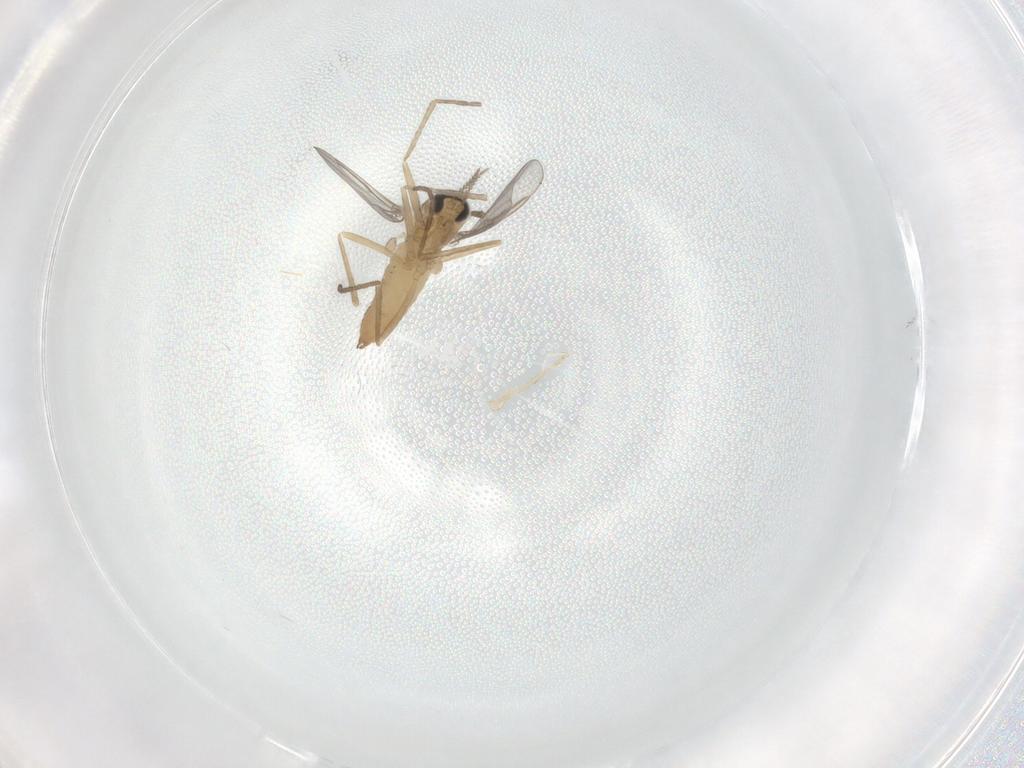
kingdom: Animalia
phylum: Arthropoda
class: Insecta
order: Diptera
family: Cecidomyiidae
